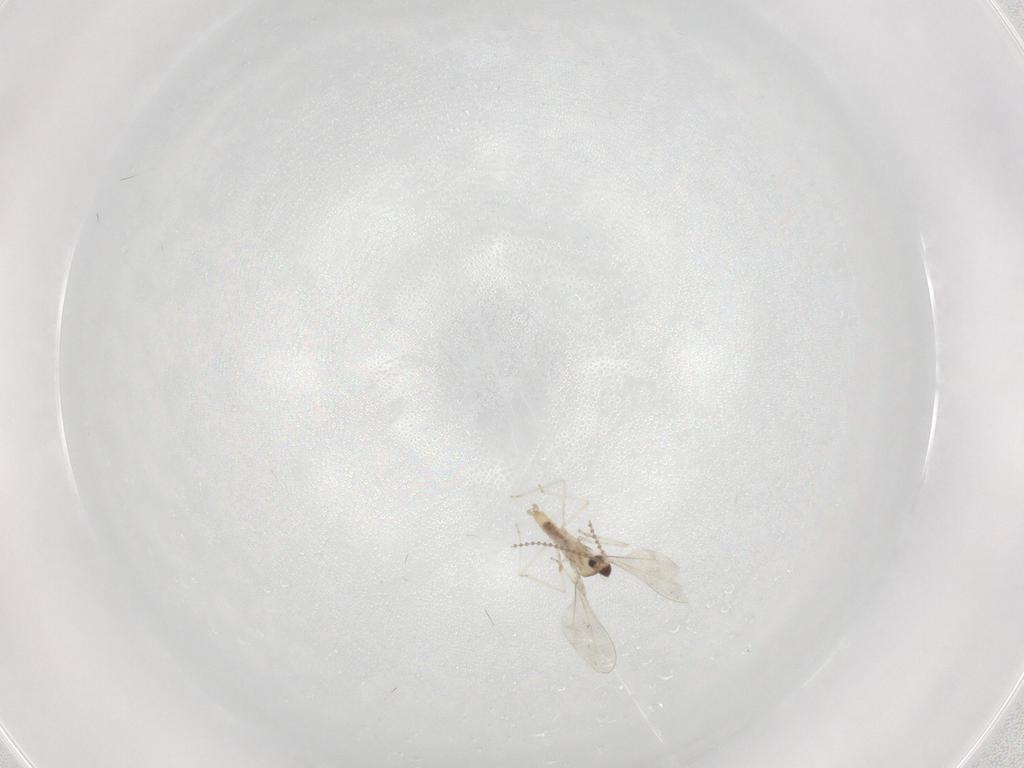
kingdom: Animalia
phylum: Arthropoda
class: Insecta
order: Diptera
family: Cecidomyiidae
